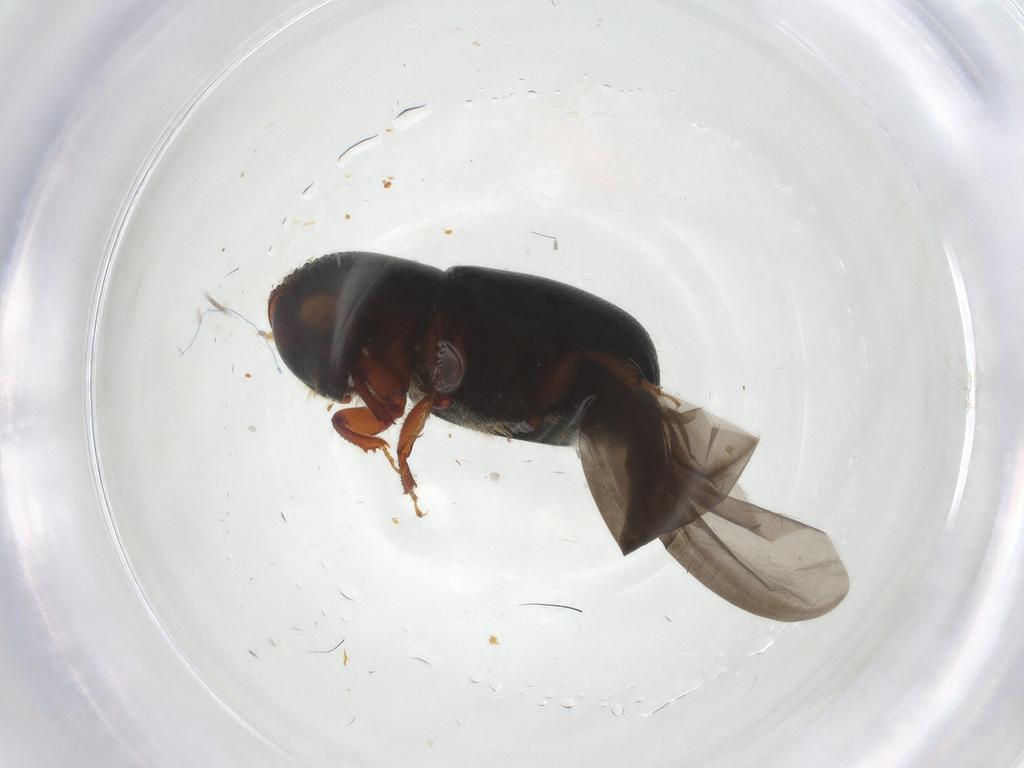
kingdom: Animalia
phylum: Arthropoda
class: Insecta
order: Coleoptera
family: Curculionidae
